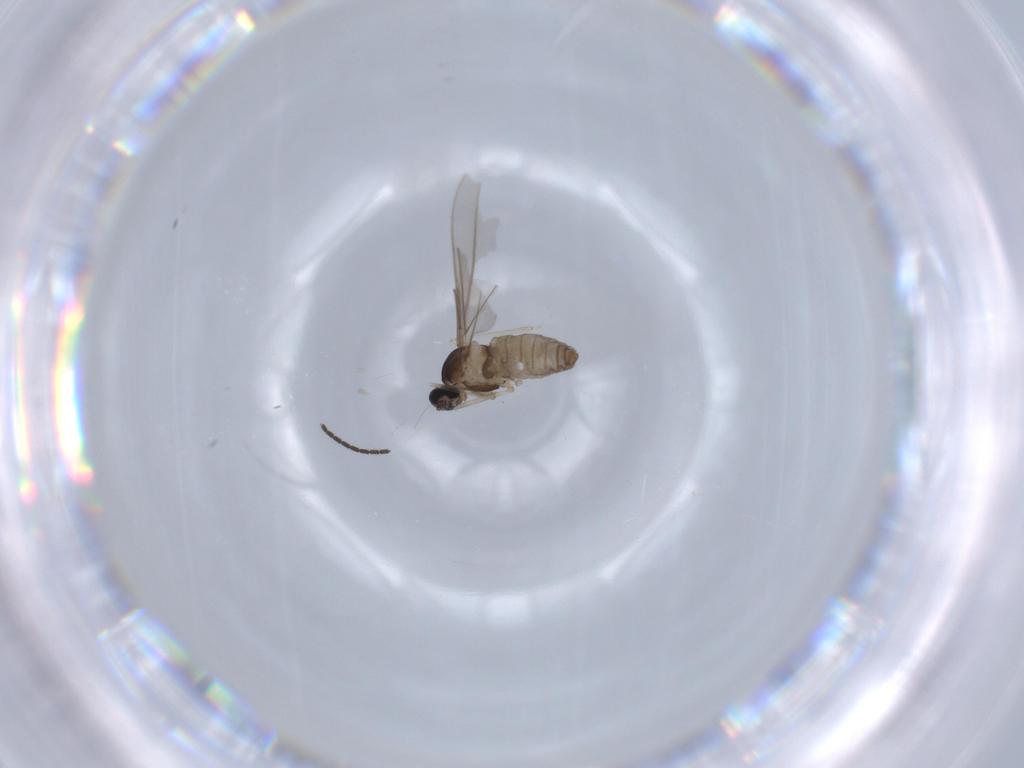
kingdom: Animalia
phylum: Arthropoda
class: Insecta
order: Diptera
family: Cecidomyiidae
